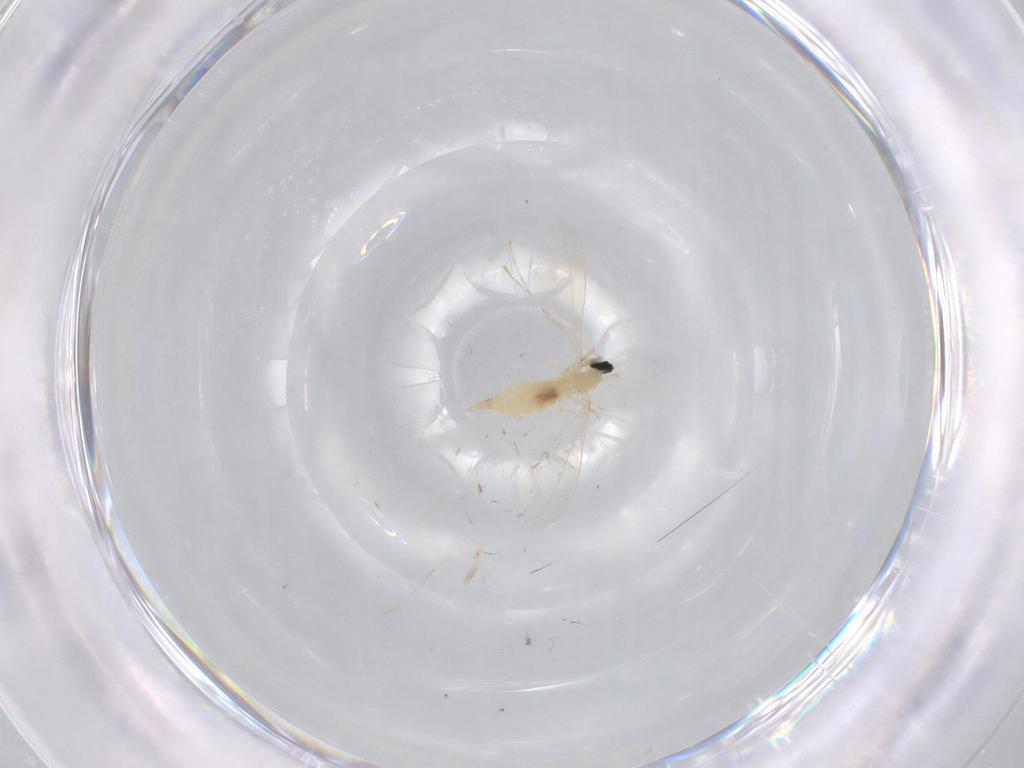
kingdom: Animalia
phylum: Arthropoda
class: Insecta
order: Diptera
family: Cecidomyiidae
